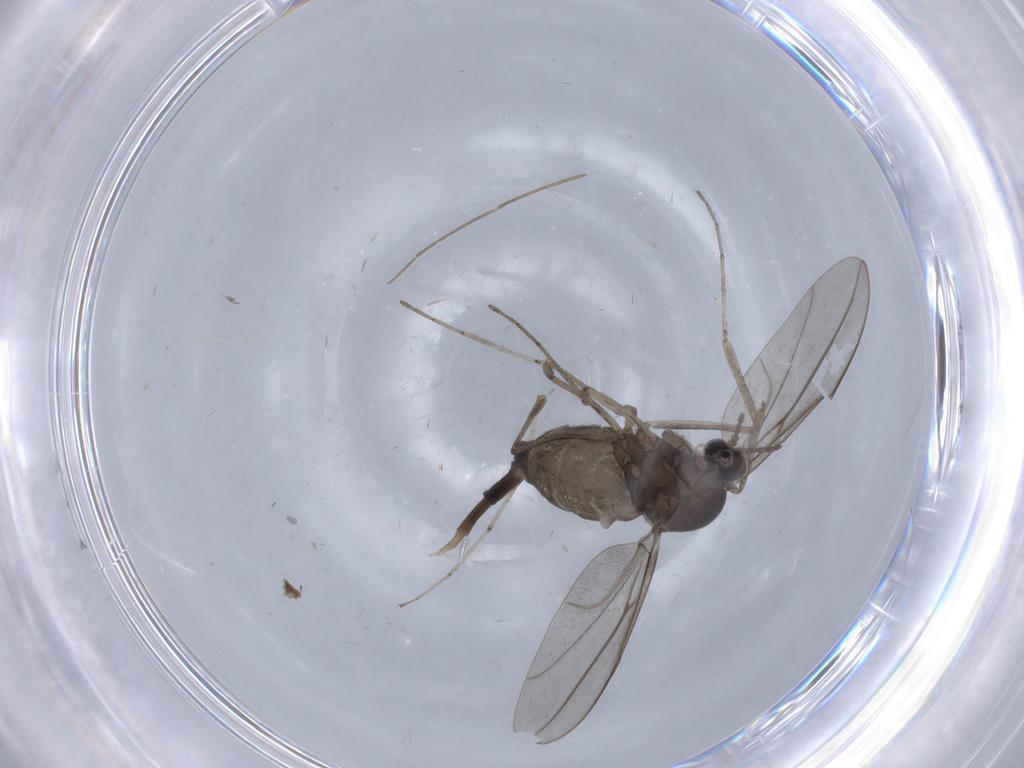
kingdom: Animalia
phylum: Arthropoda
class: Insecta
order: Diptera
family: Cecidomyiidae
